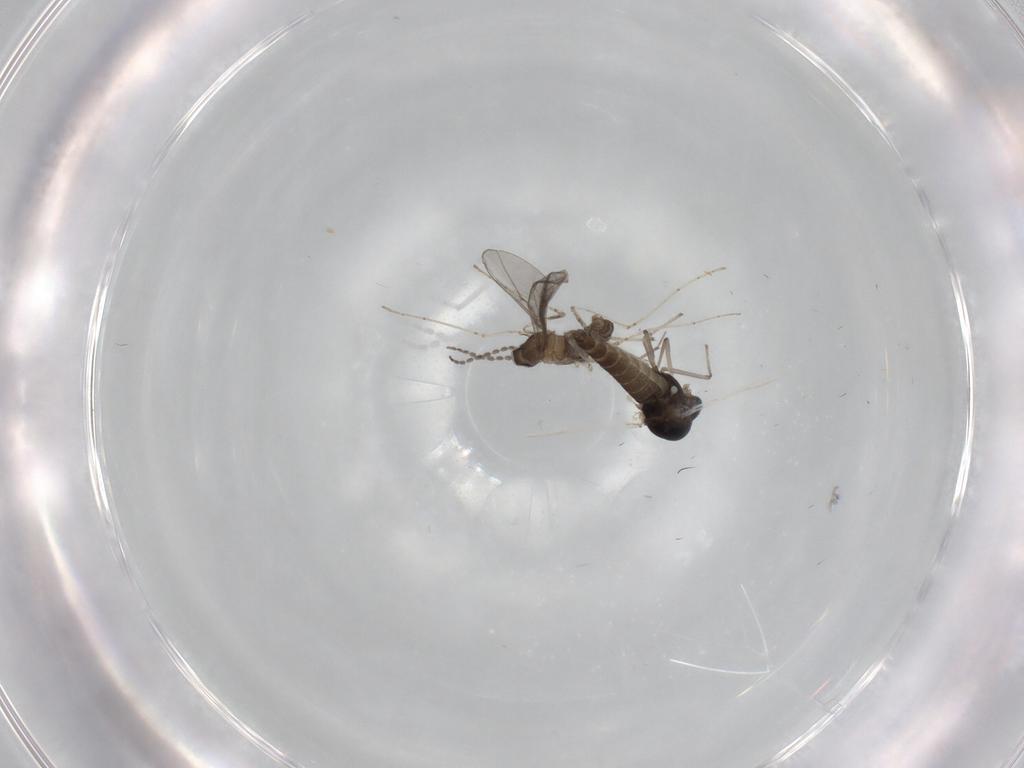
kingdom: Animalia
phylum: Arthropoda
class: Insecta
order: Diptera
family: Chironomidae
